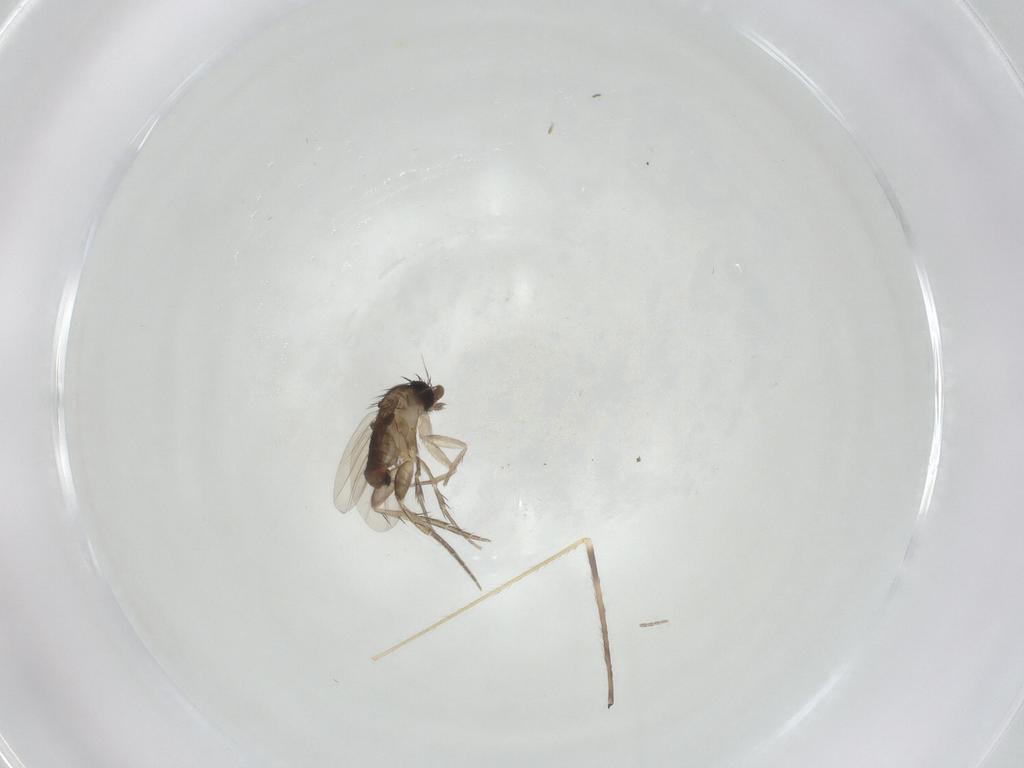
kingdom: Animalia
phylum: Arthropoda
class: Insecta
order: Diptera
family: Phoridae
